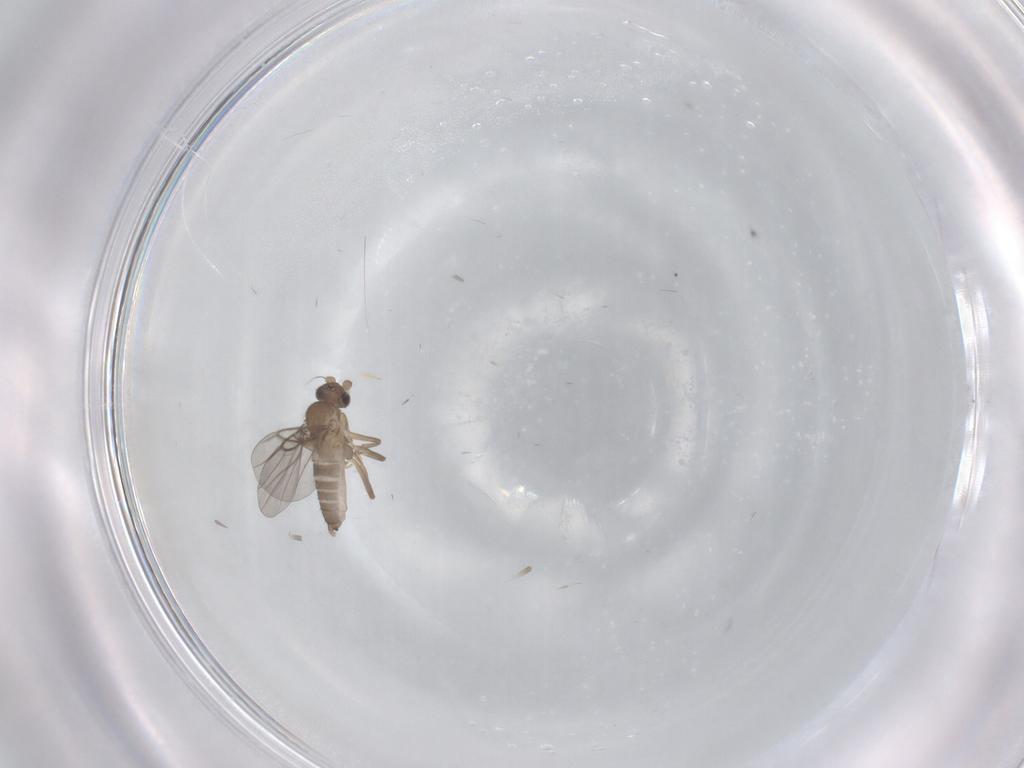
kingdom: Animalia
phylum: Arthropoda
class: Insecta
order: Diptera
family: Phoridae
